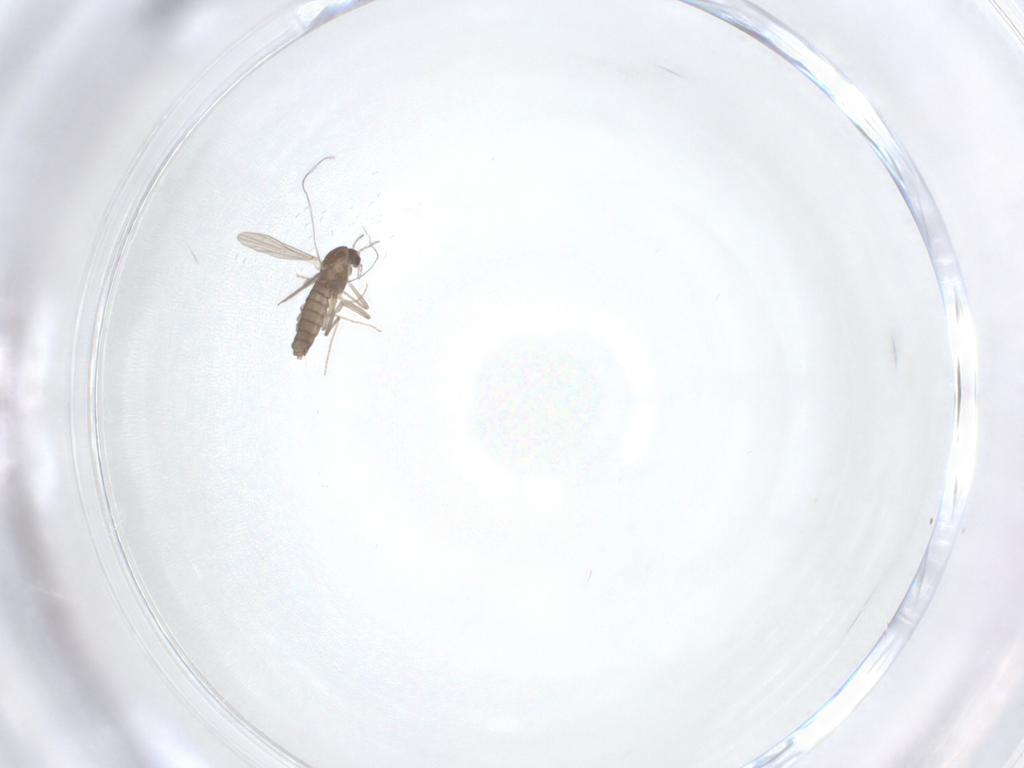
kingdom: Animalia
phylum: Arthropoda
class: Insecta
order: Diptera
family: Chironomidae
